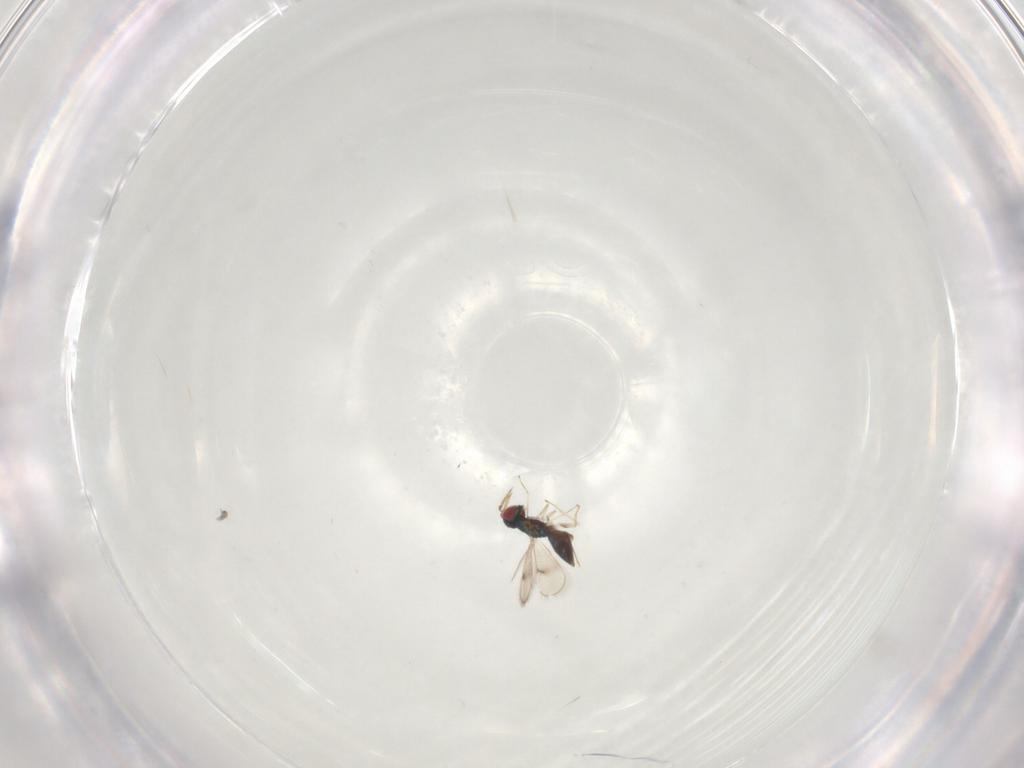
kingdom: Animalia
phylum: Arthropoda
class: Insecta
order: Hymenoptera
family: Eulophidae
